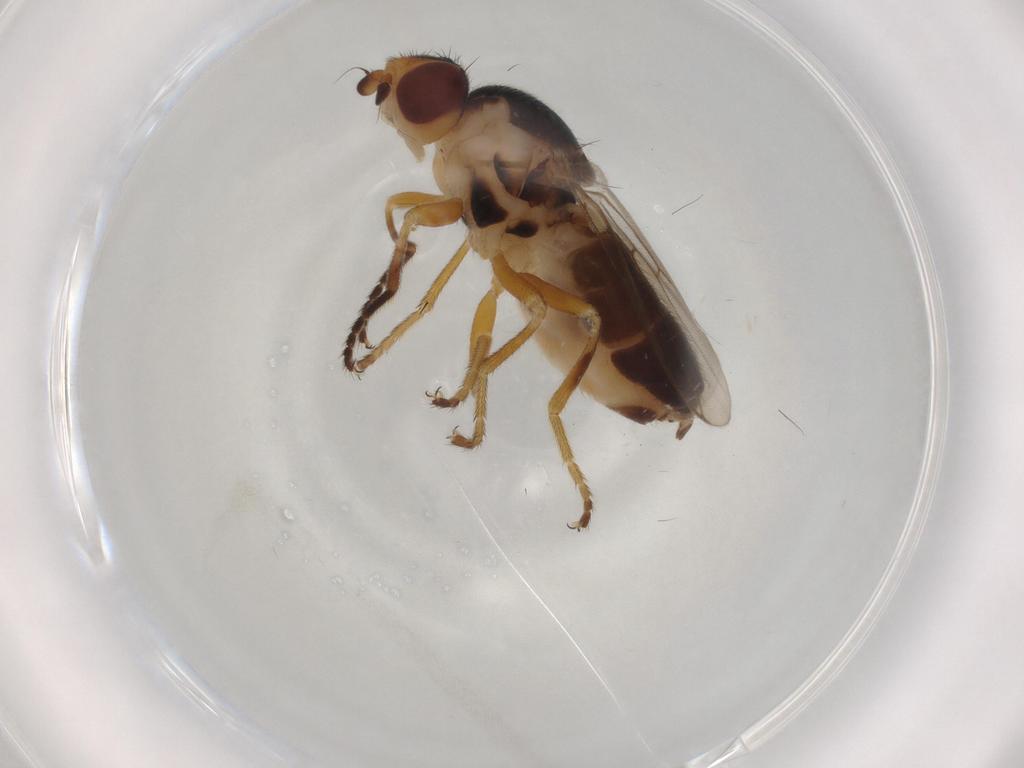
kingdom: Animalia
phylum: Arthropoda
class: Insecta
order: Diptera
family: Chloropidae
